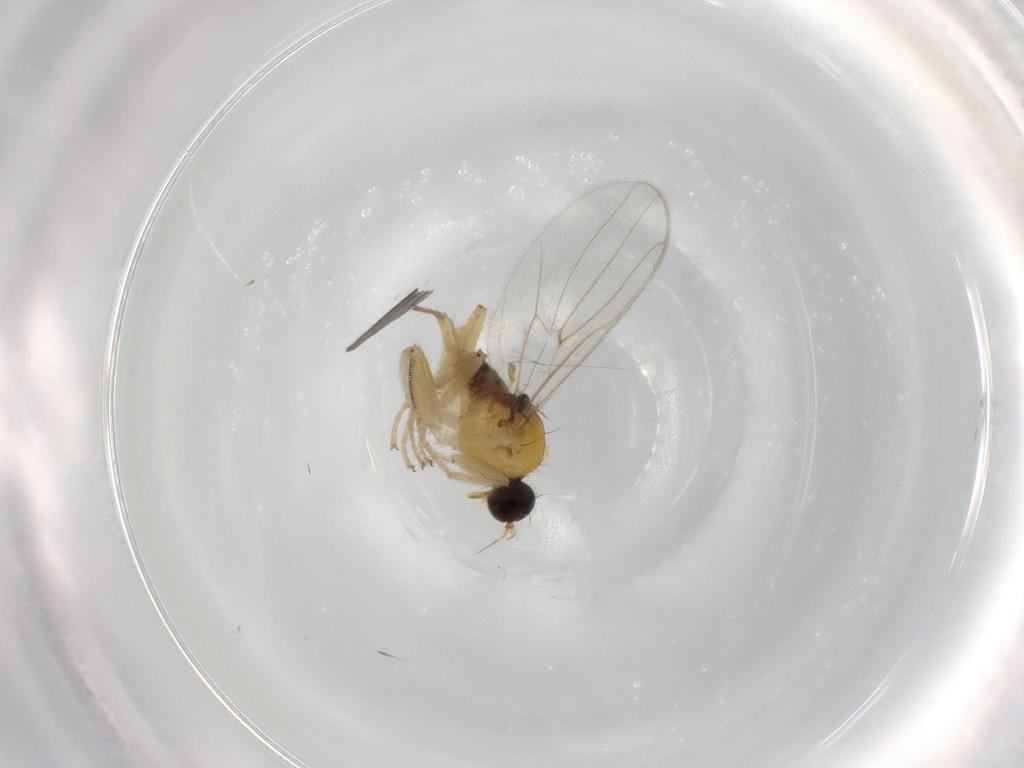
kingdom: Animalia
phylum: Arthropoda
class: Insecta
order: Diptera
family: Hybotidae
